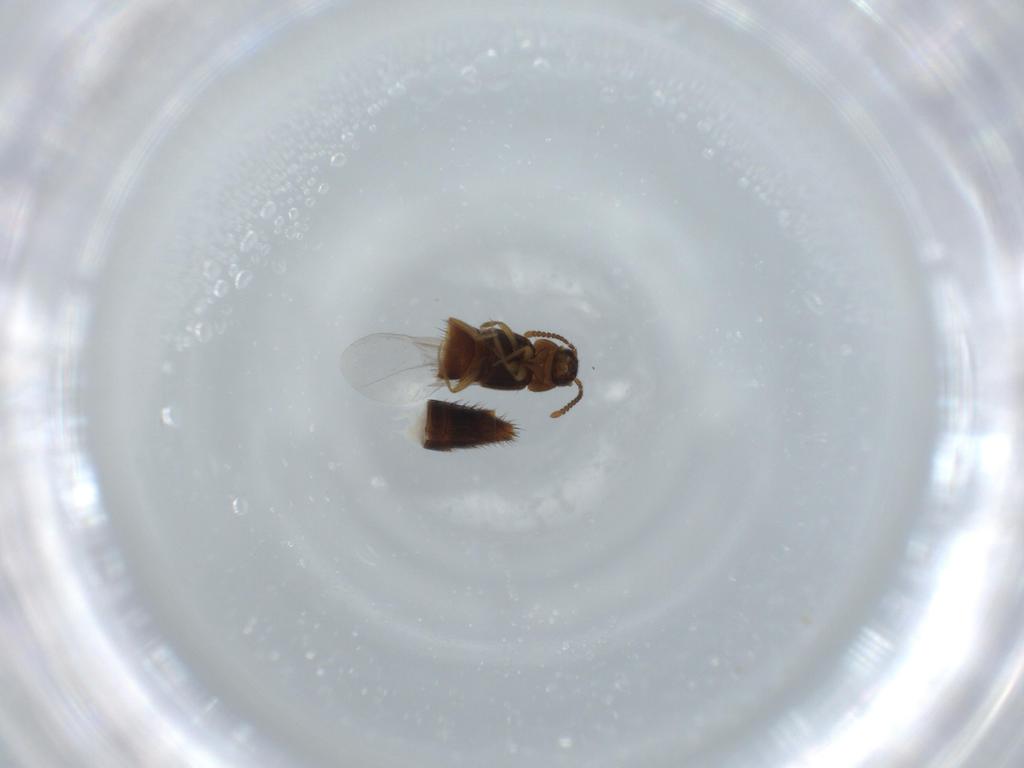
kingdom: Animalia
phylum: Arthropoda
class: Insecta
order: Coleoptera
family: Staphylinidae
